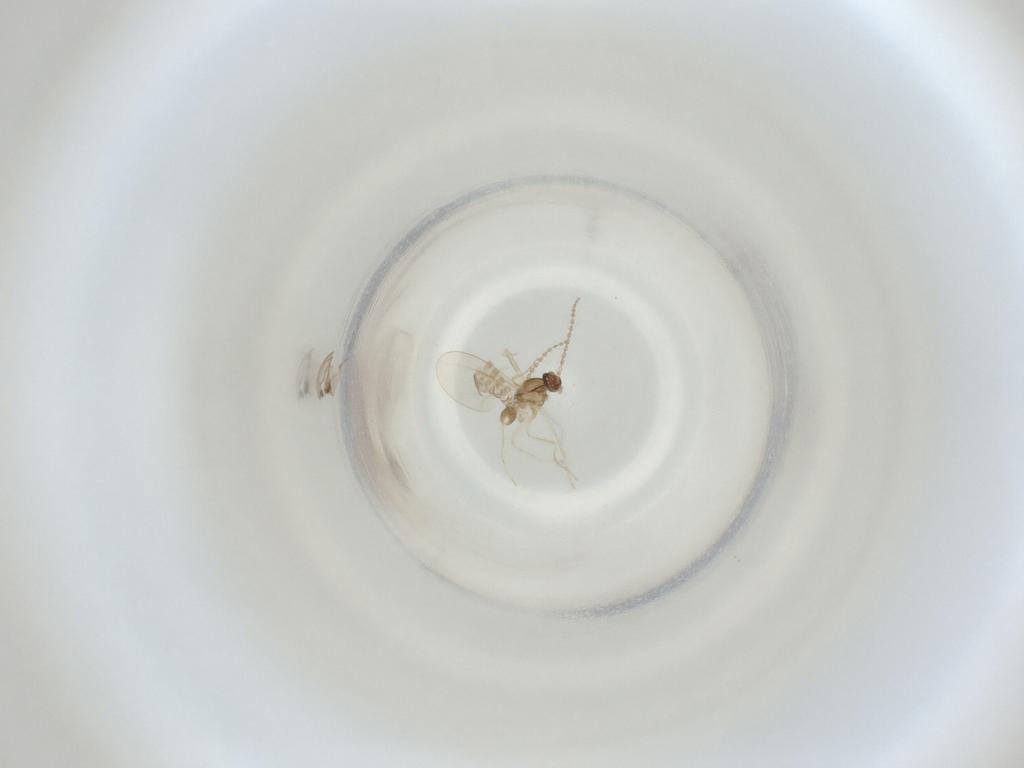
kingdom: Animalia
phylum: Arthropoda
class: Insecta
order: Diptera
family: Cecidomyiidae
